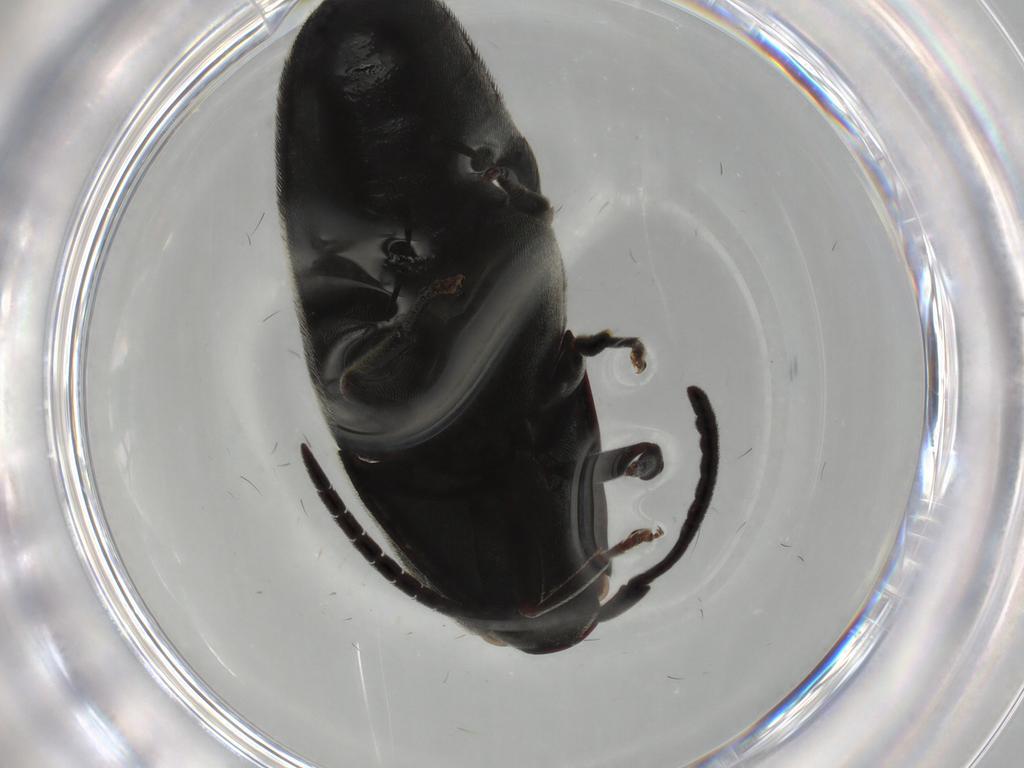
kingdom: Animalia
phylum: Arthropoda
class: Insecta
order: Coleoptera
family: Eucnemidae
